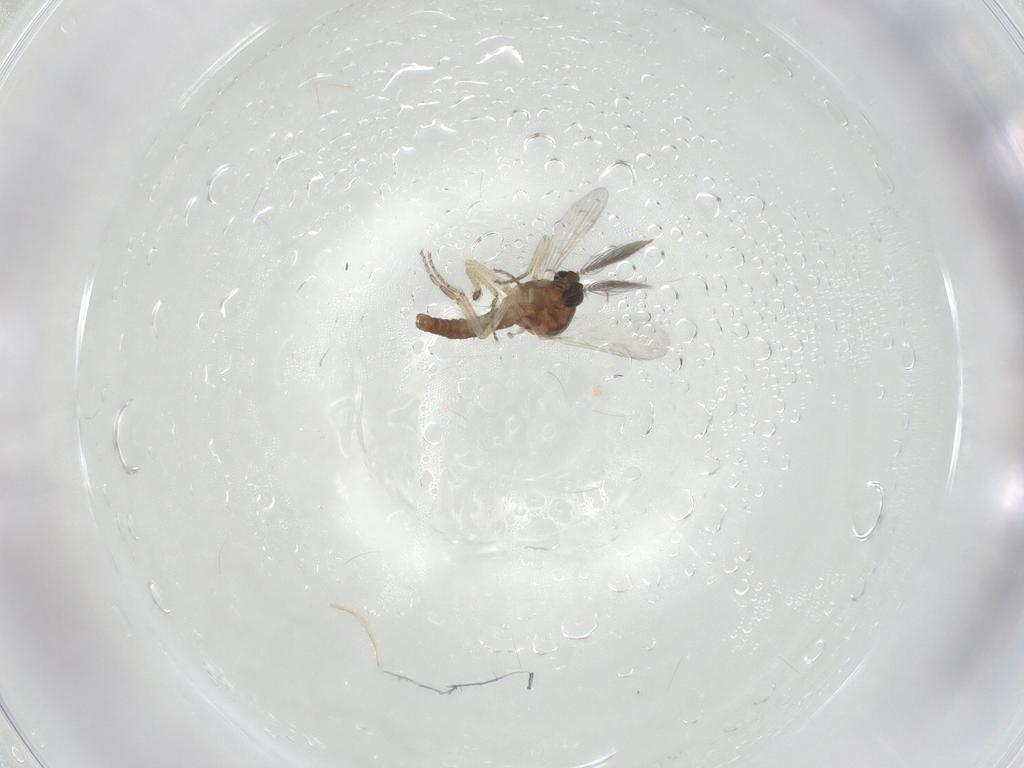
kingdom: Animalia
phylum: Arthropoda
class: Insecta
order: Diptera
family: Ceratopogonidae
